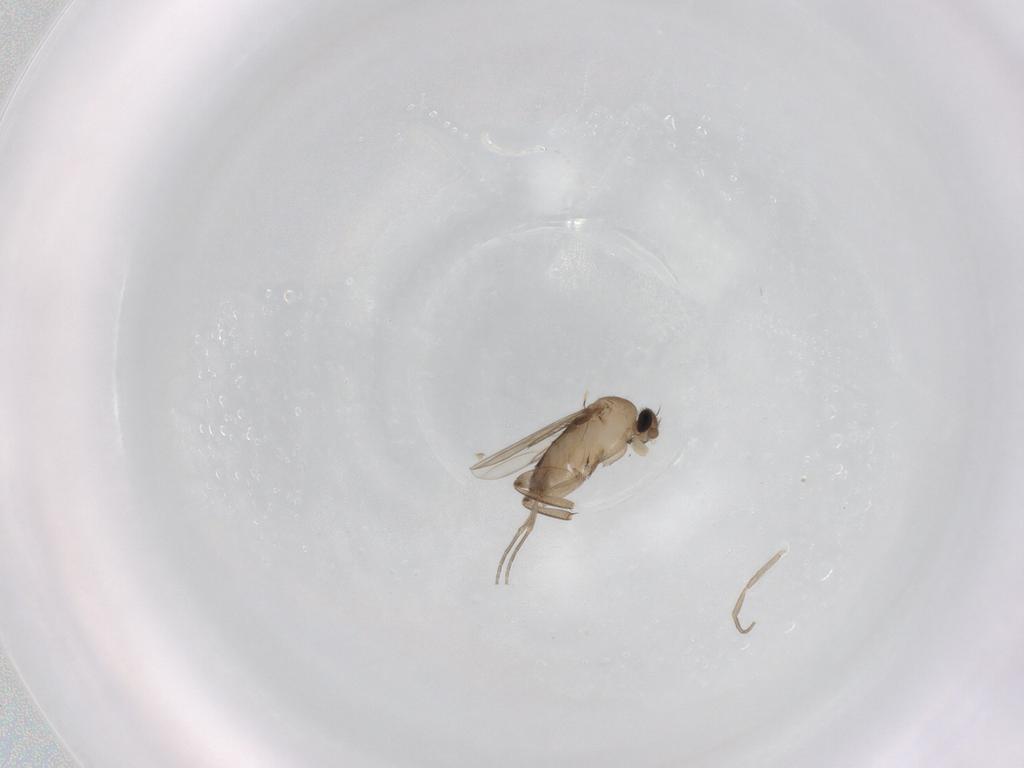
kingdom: Animalia
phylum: Arthropoda
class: Insecta
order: Diptera
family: Phoridae
